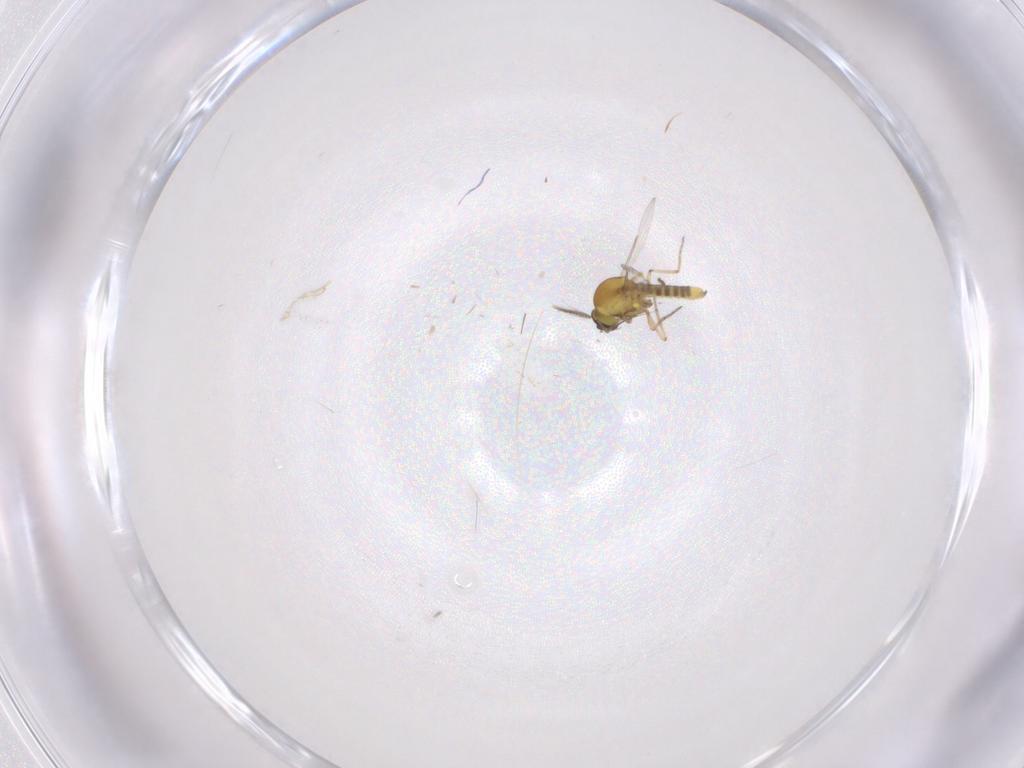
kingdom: Animalia
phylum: Arthropoda
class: Insecta
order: Diptera
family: Ceratopogonidae
